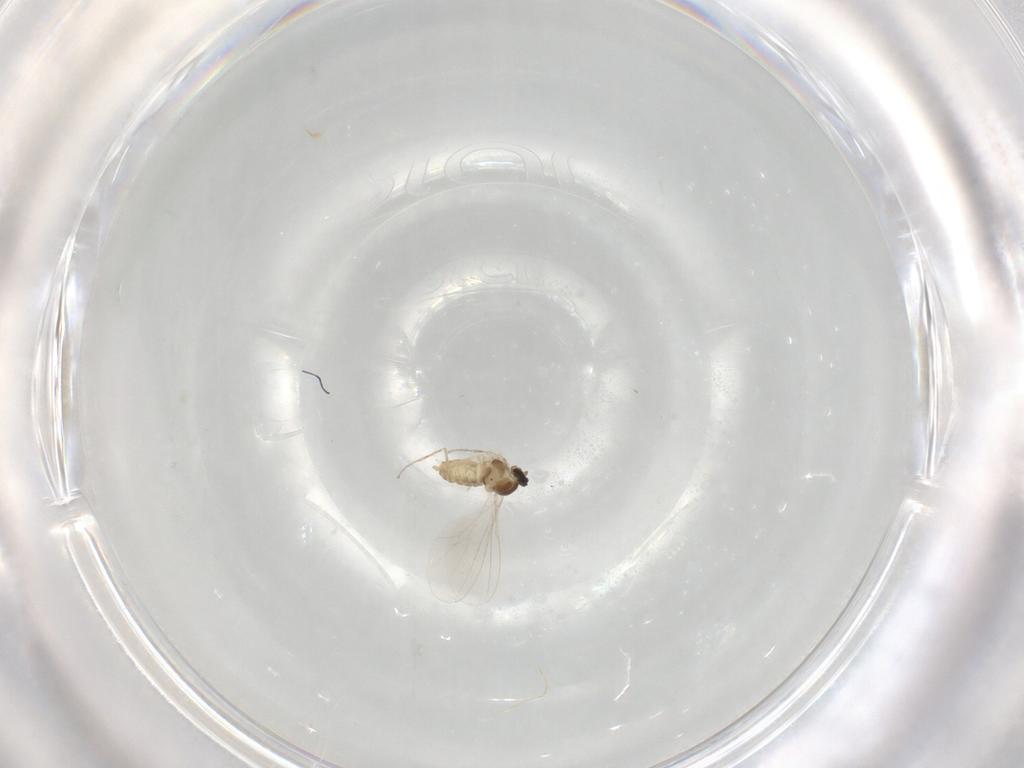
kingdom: Animalia
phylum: Arthropoda
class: Insecta
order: Diptera
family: Cecidomyiidae
